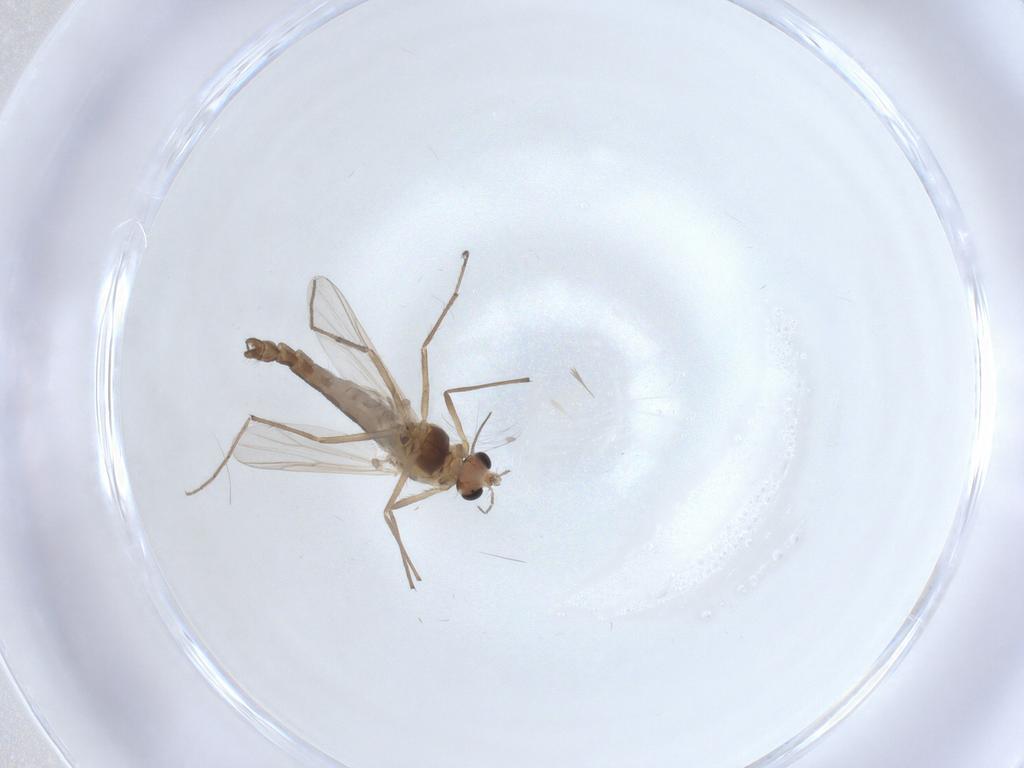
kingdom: Animalia
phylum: Arthropoda
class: Insecta
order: Diptera
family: Chironomidae
